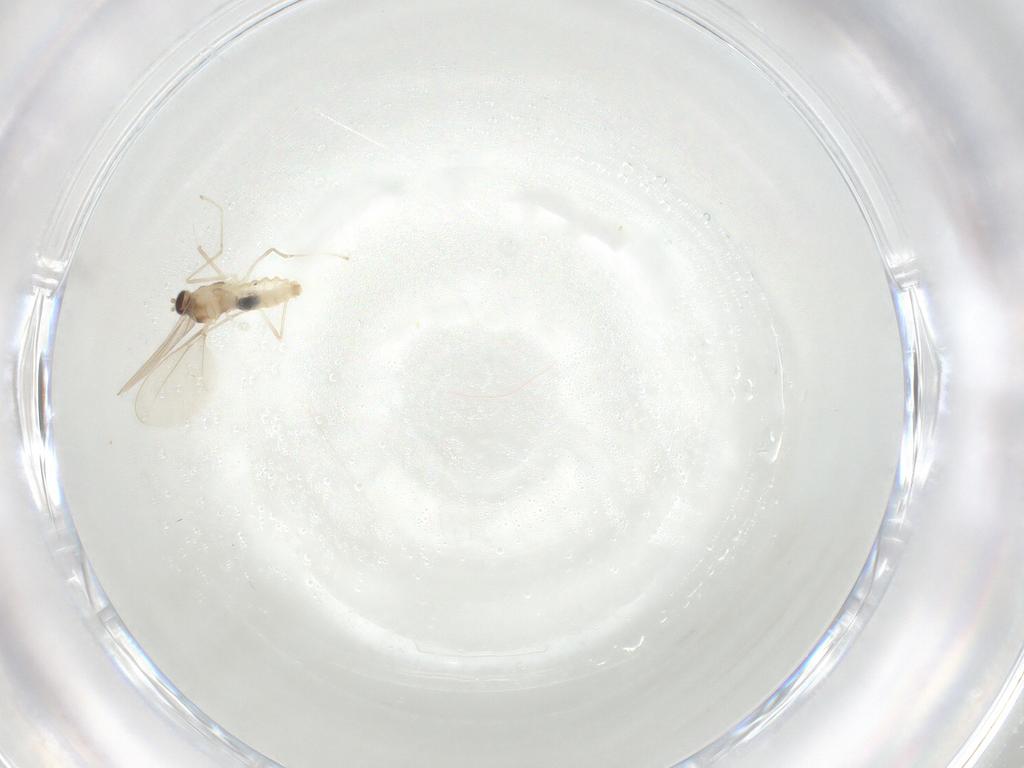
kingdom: Animalia
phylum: Arthropoda
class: Insecta
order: Diptera
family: Cecidomyiidae
